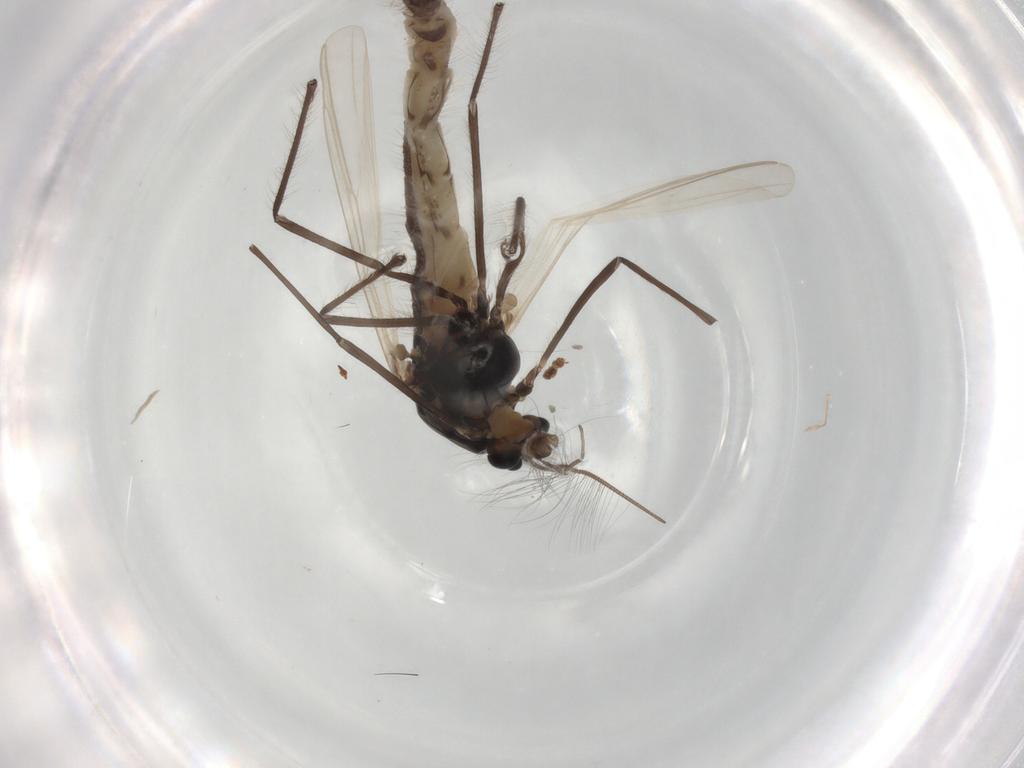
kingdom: Animalia
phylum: Arthropoda
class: Insecta
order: Diptera
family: Chironomidae
